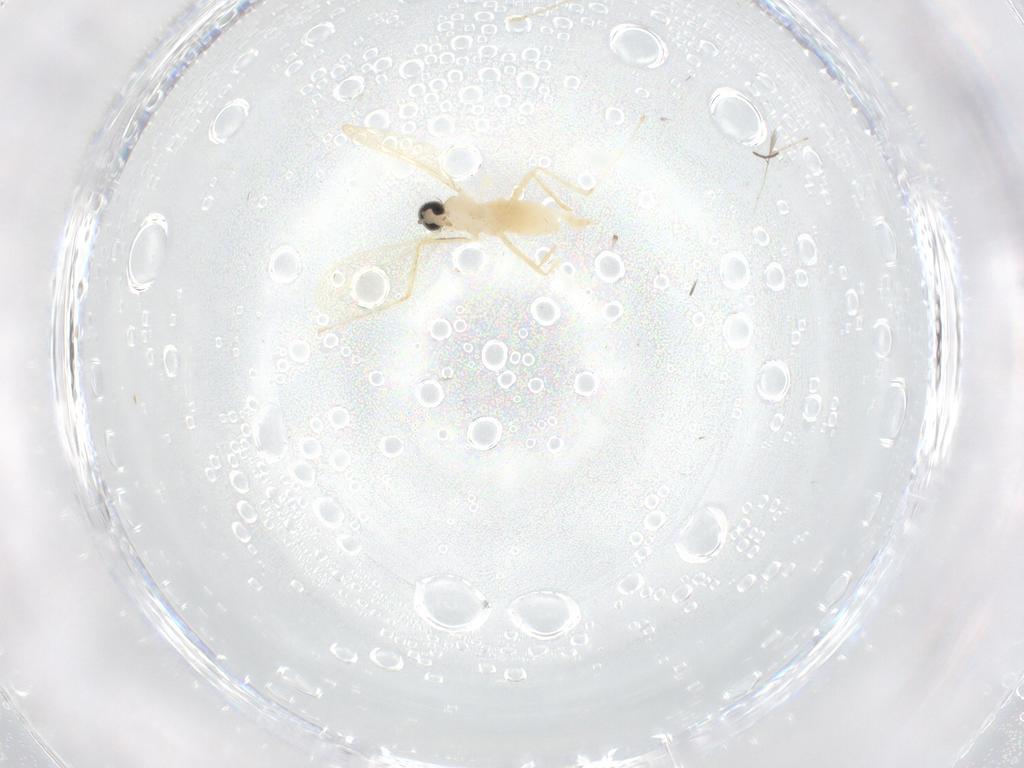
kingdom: Animalia
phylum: Arthropoda
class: Insecta
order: Diptera
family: Cecidomyiidae
